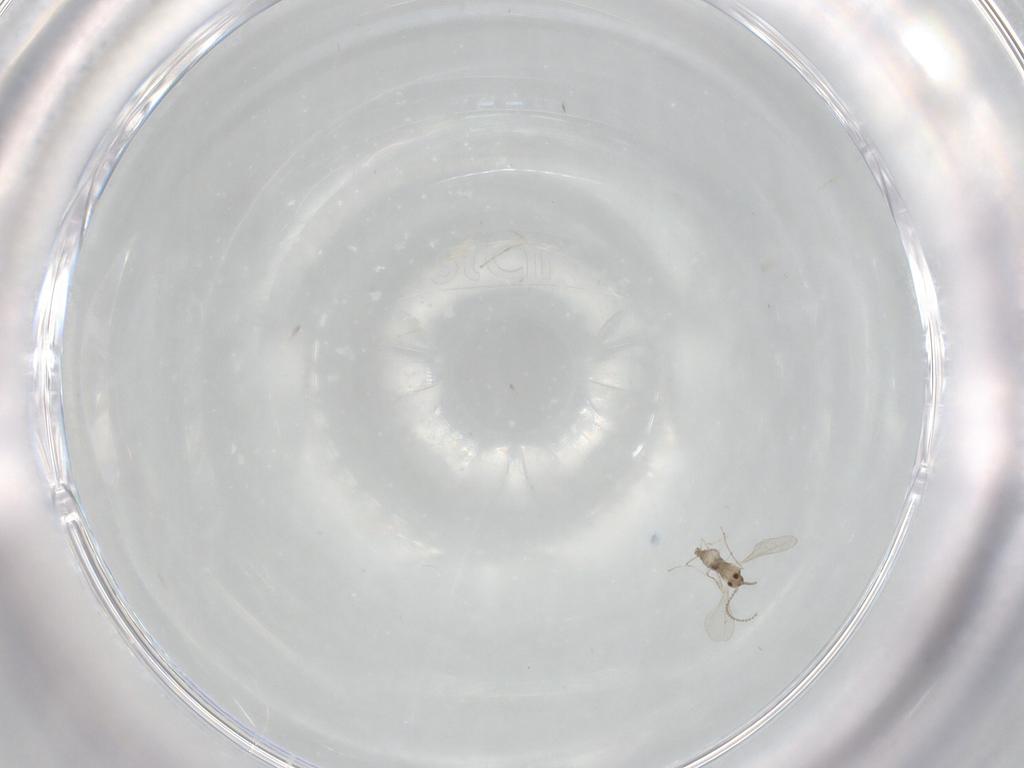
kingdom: Animalia
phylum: Arthropoda
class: Insecta
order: Diptera
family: Cecidomyiidae
